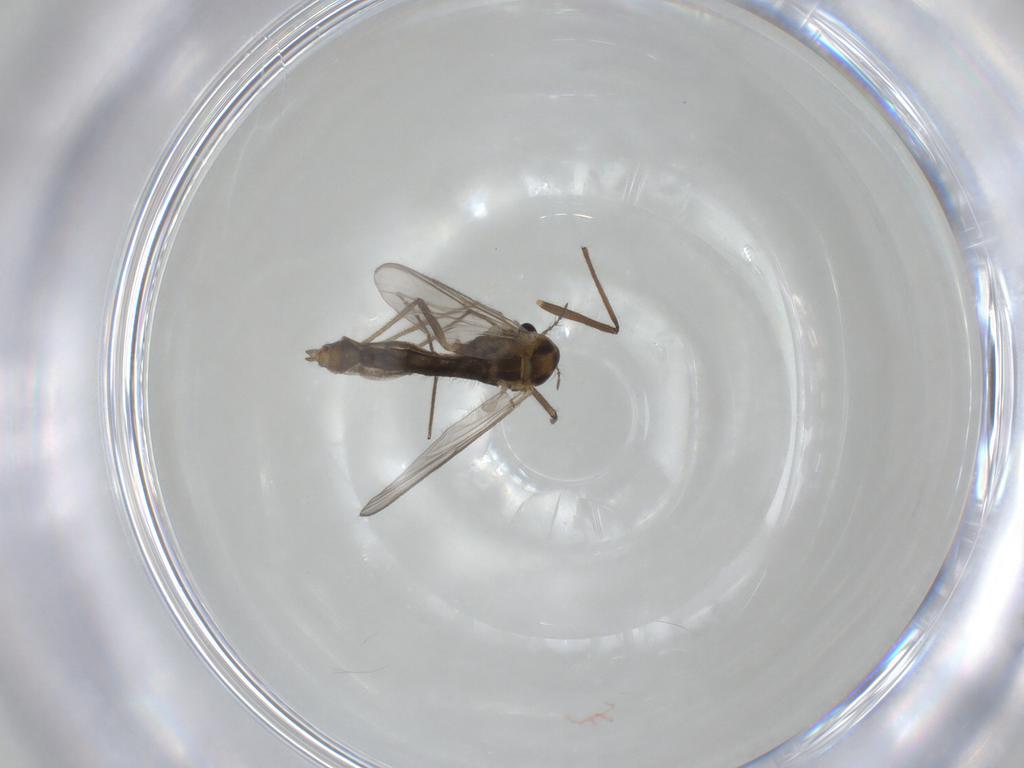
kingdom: Animalia
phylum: Arthropoda
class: Insecta
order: Diptera
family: Chironomidae
